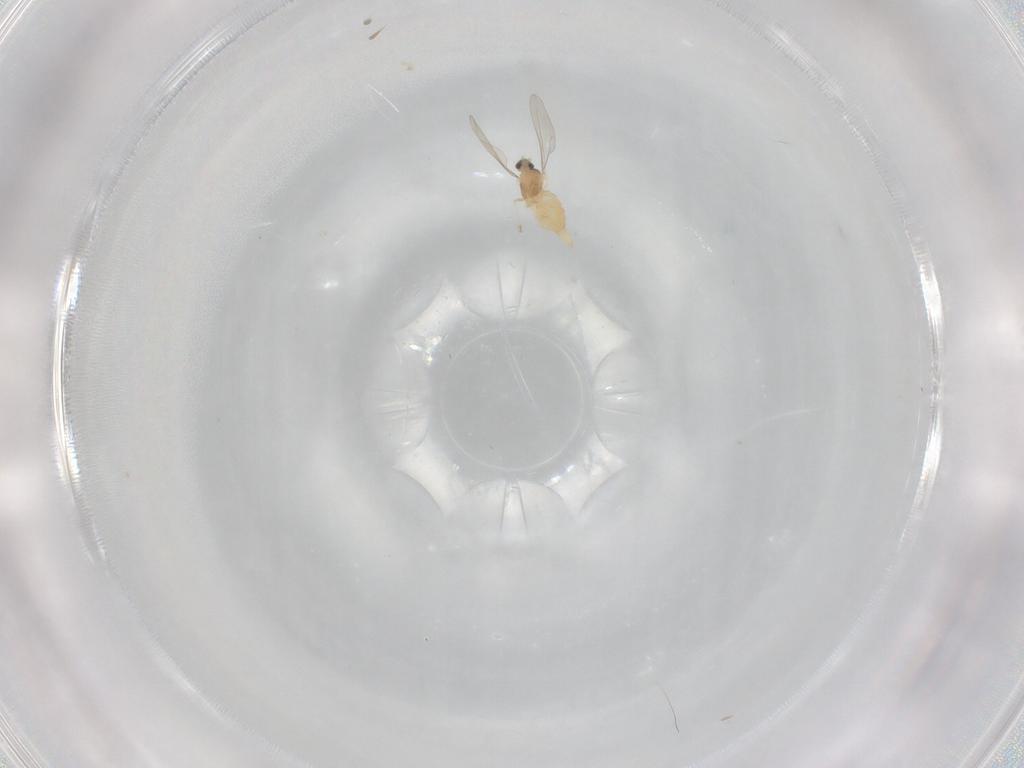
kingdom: Animalia
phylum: Arthropoda
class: Insecta
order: Diptera
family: Cecidomyiidae
